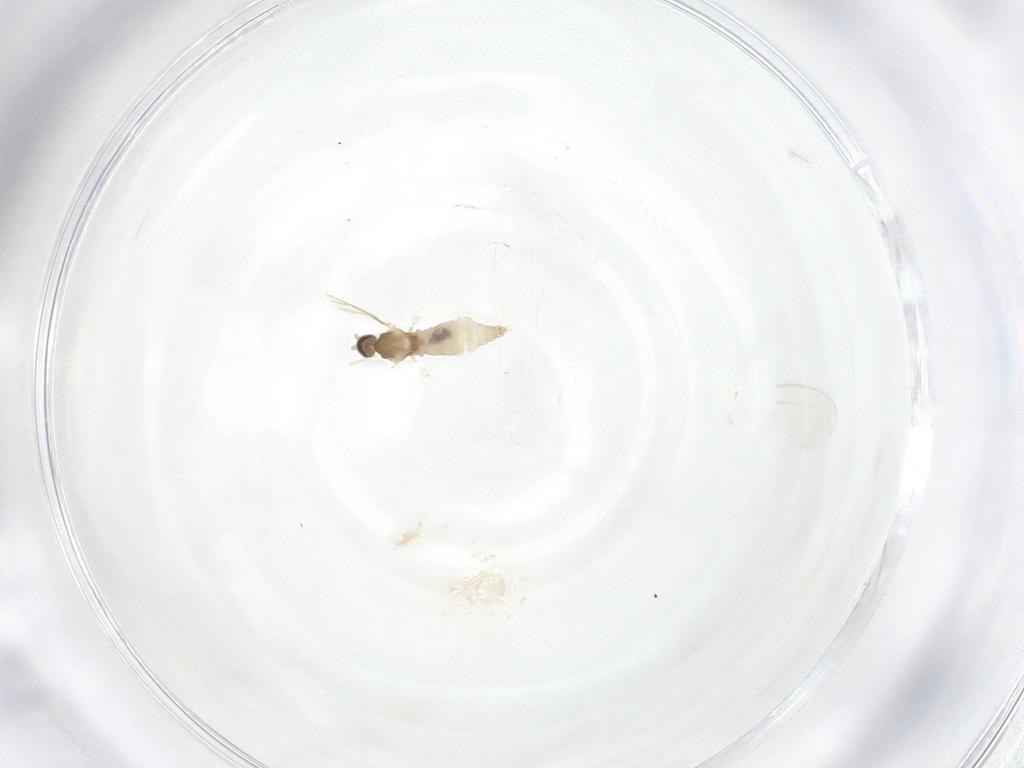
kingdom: Animalia
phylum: Arthropoda
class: Insecta
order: Diptera
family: Cecidomyiidae
